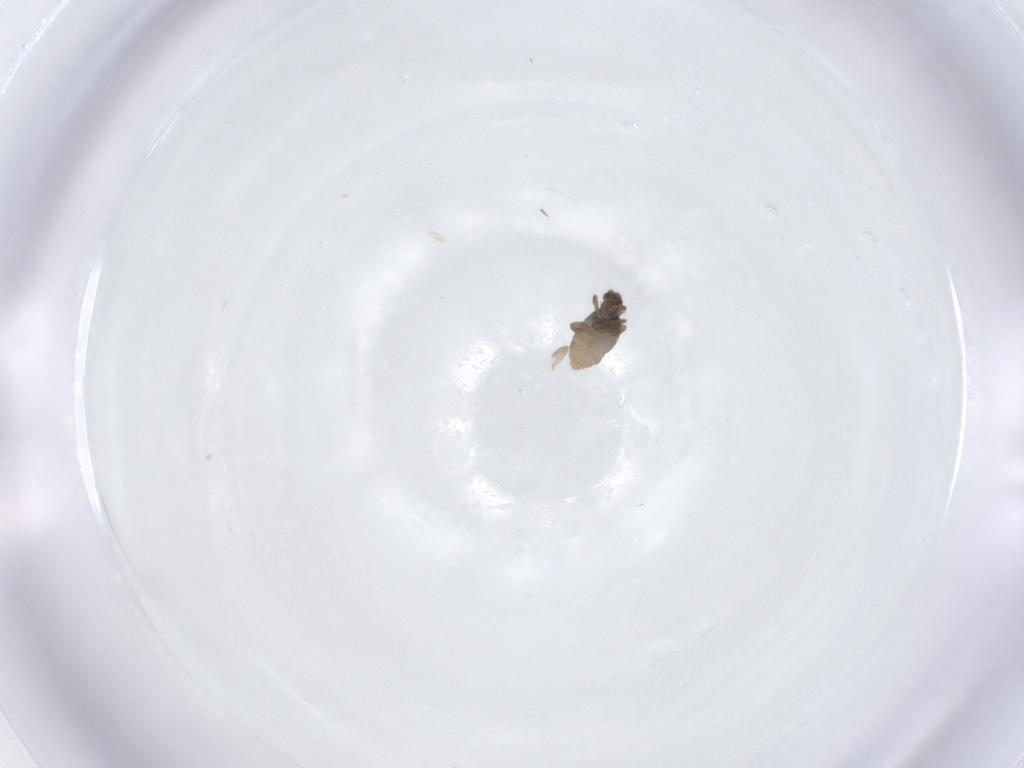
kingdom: Animalia
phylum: Arthropoda
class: Insecta
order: Diptera
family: Phoridae
